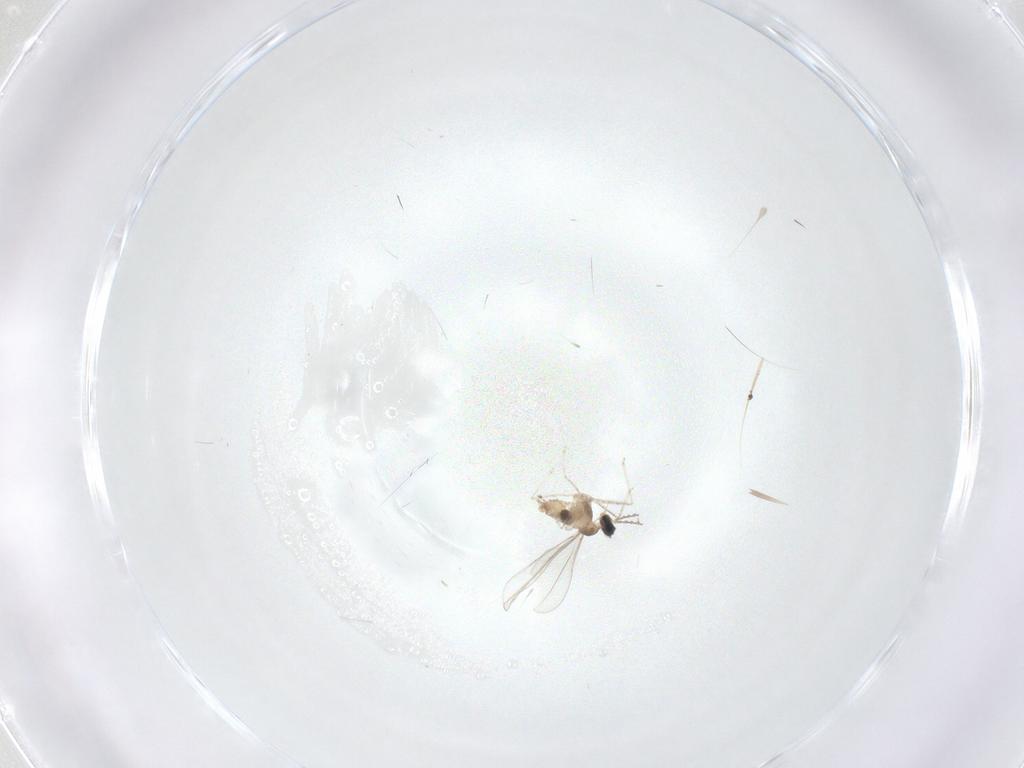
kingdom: Animalia
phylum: Arthropoda
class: Insecta
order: Diptera
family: Cecidomyiidae
